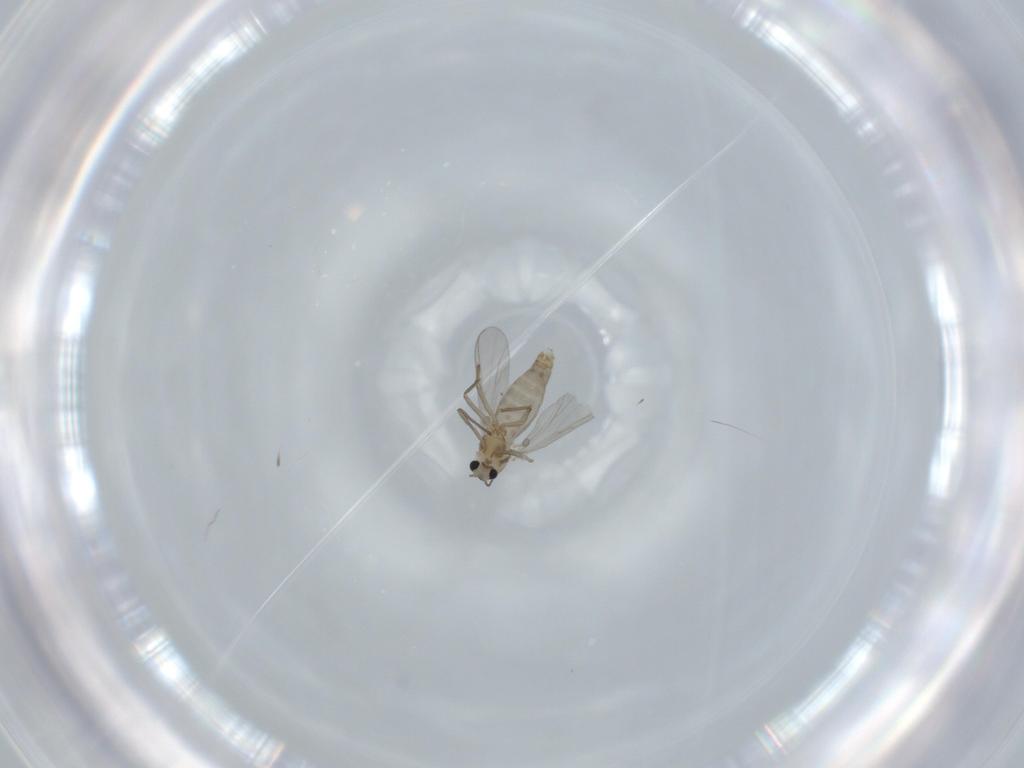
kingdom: Animalia
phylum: Arthropoda
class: Insecta
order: Diptera
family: Chironomidae
